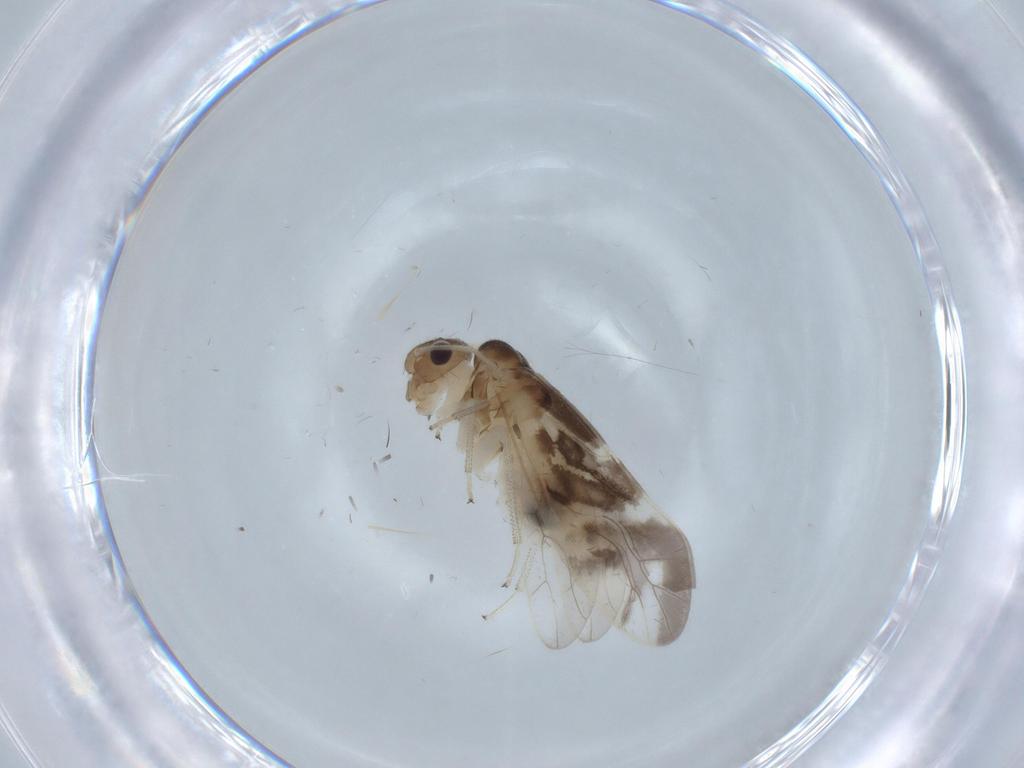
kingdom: Animalia
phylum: Arthropoda
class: Insecta
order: Psocodea
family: Caeciliusidae
